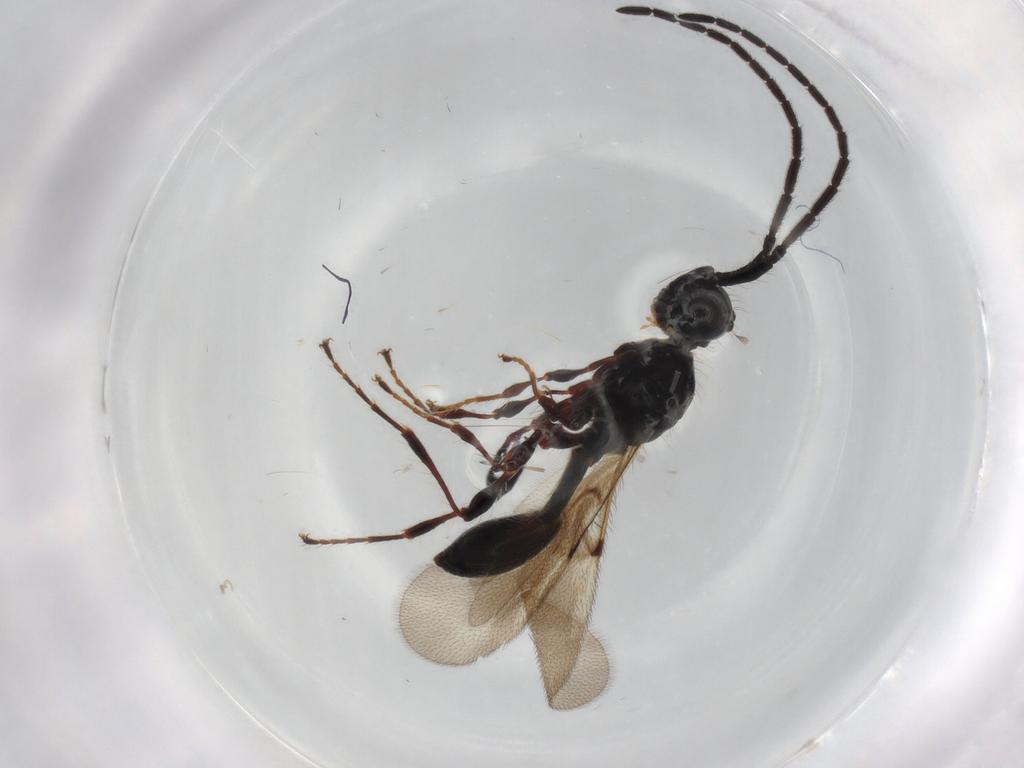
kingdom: Animalia
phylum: Arthropoda
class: Insecta
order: Hymenoptera
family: Diapriidae
